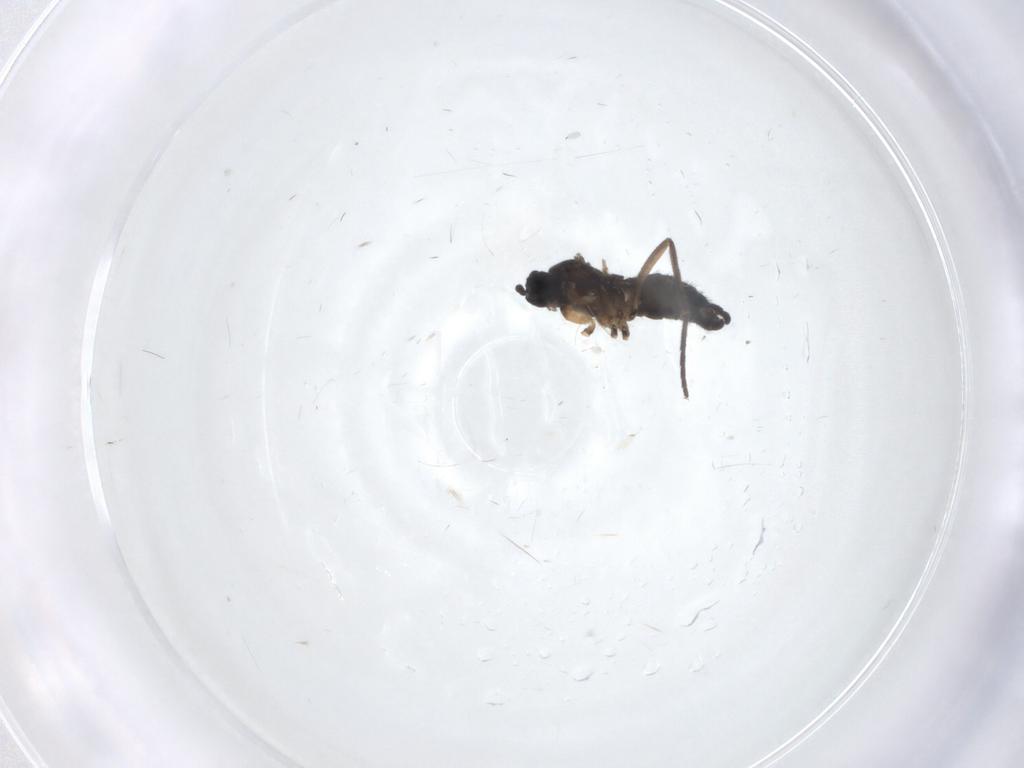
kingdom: Animalia
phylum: Arthropoda
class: Insecta
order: Diptera
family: Sciaridae
